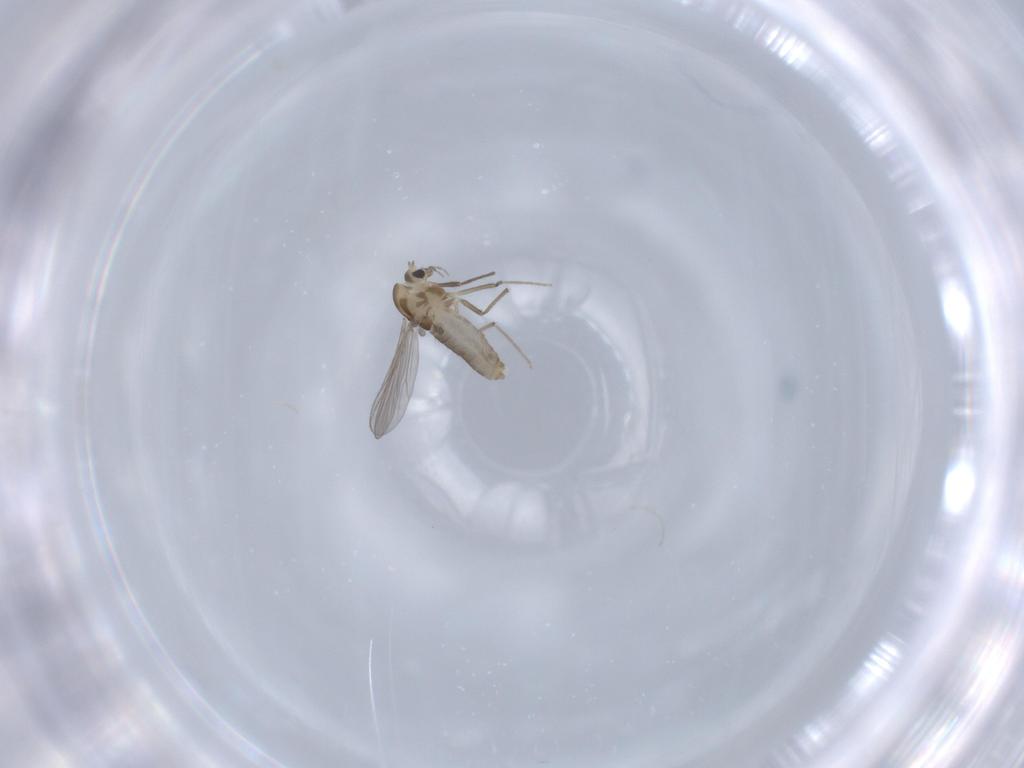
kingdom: Animalia
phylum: Arthropoda
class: Insecta
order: Diptera
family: Chironomidae
